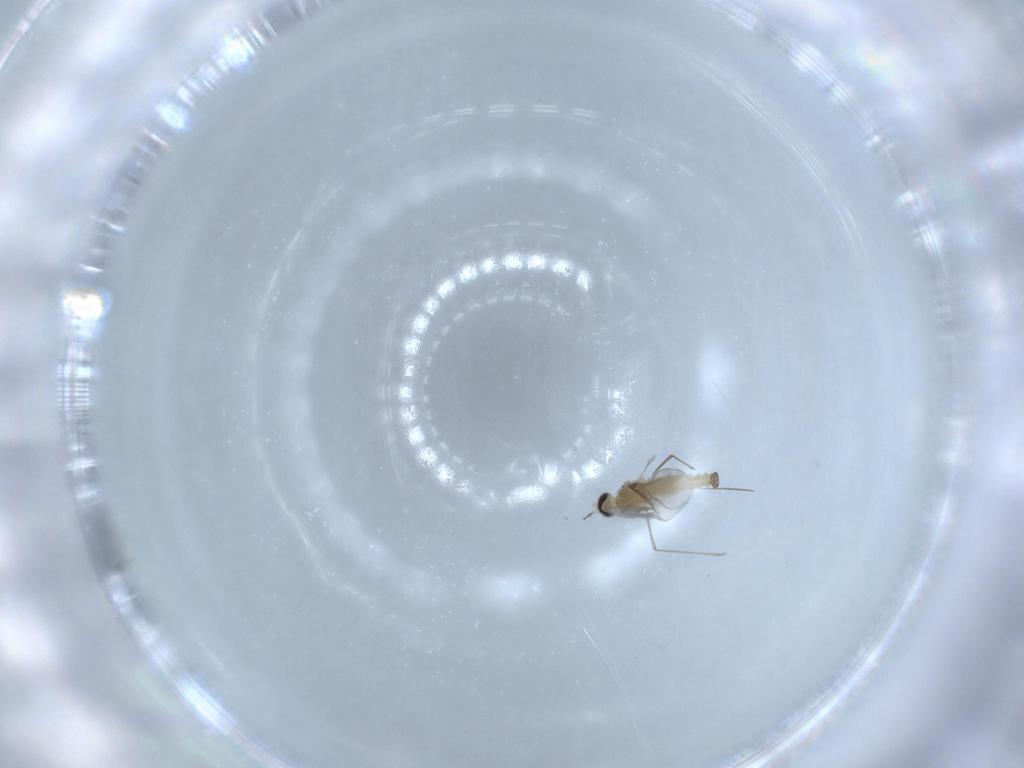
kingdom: Animalia
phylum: Arthropoda
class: Insecta
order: Diptera
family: Cecidomyiidae
